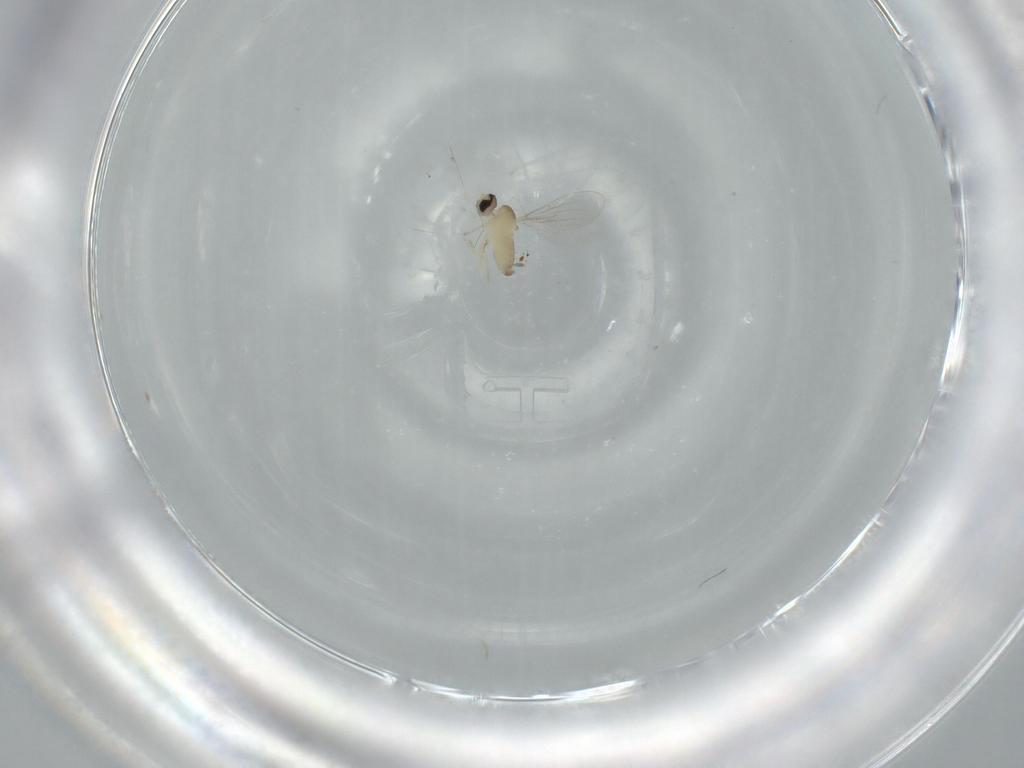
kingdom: Animalia
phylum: Arthropoda
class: Insecta
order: Diptera
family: Cecidomyiidae
